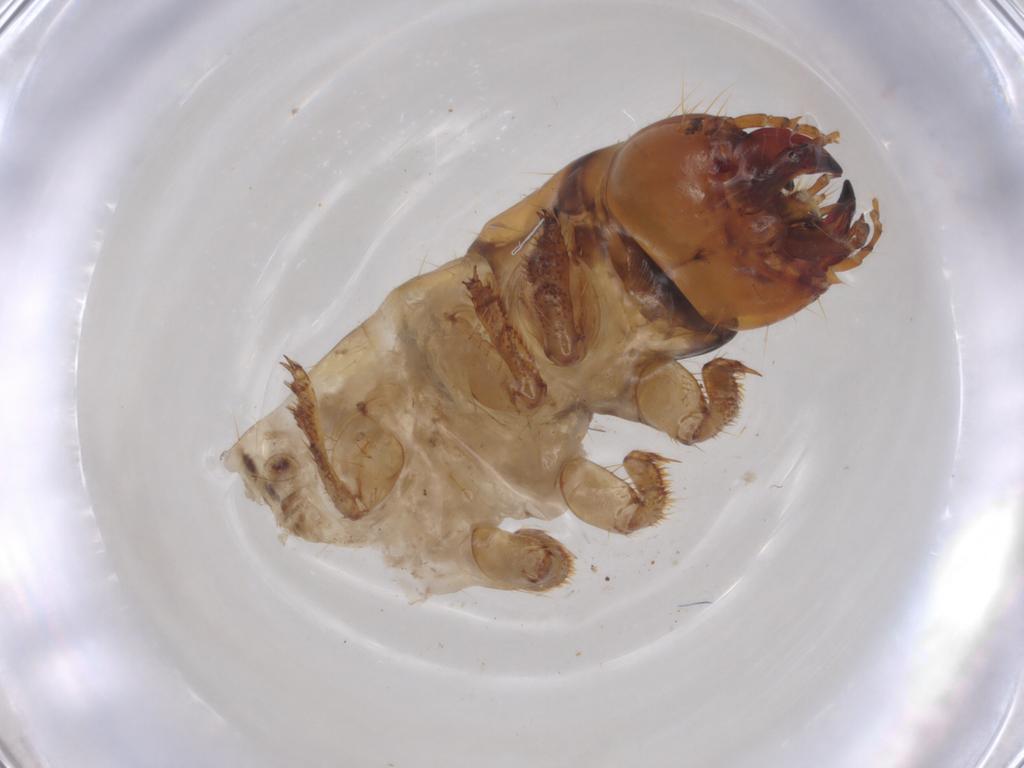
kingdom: Animalia
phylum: Arthropoda
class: Insecta
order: Coleoptera
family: Carabidae
